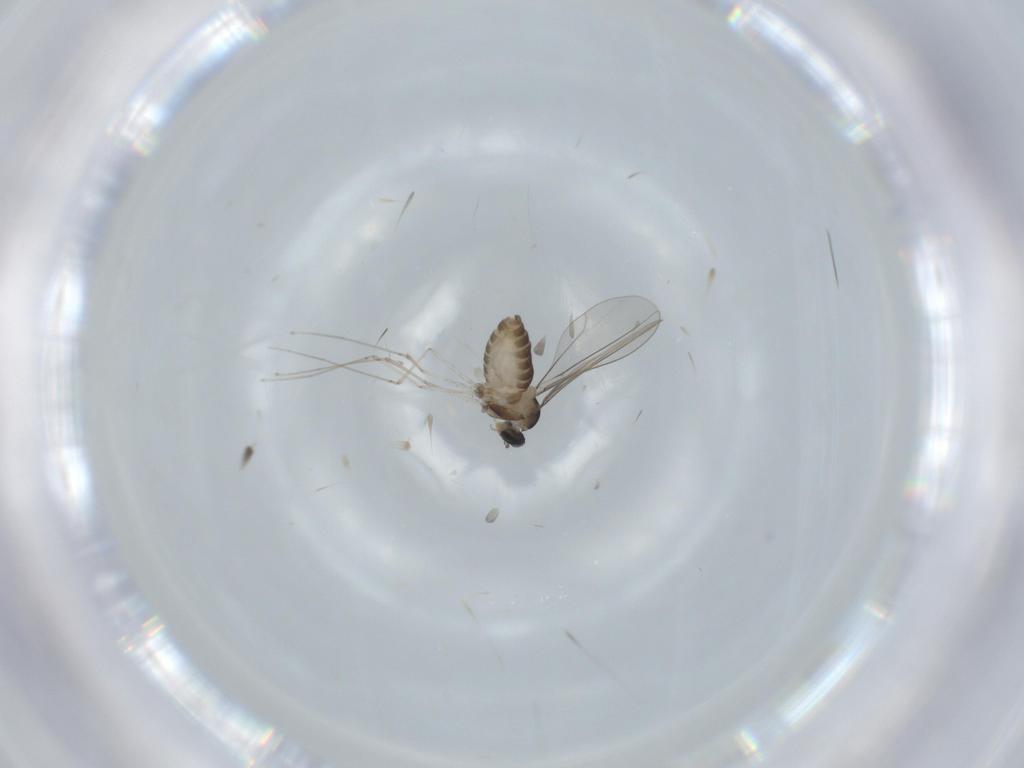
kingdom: Animalia
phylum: Arthropoda
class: Insecta
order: Diptera
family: Cecidomyiidae
